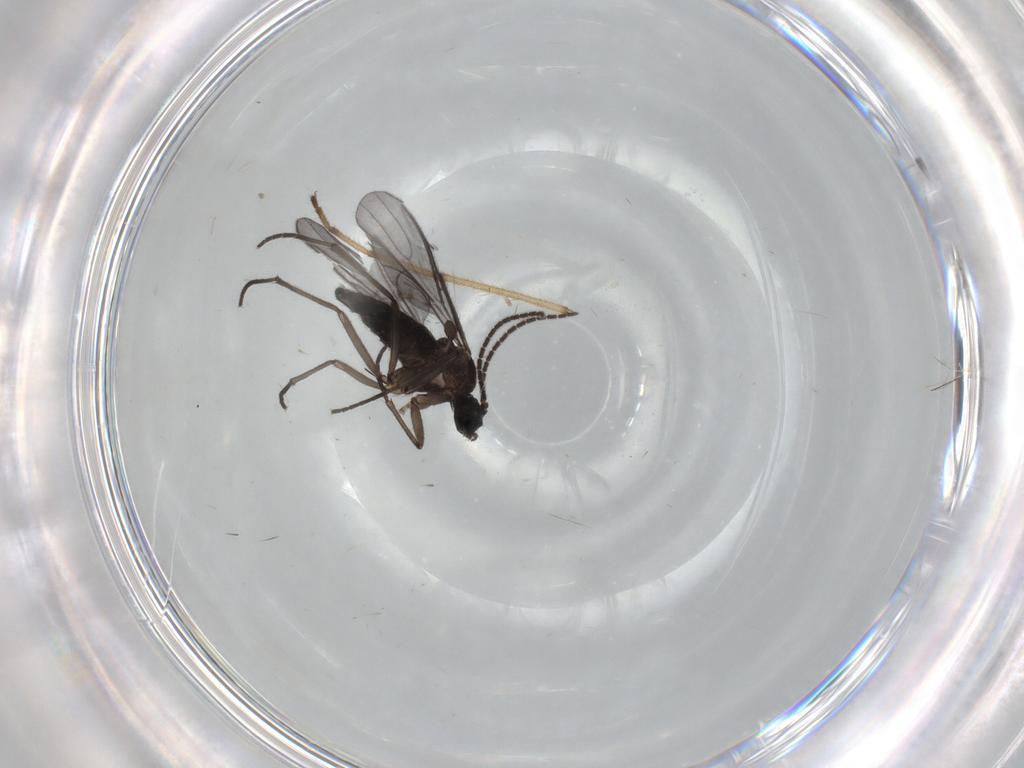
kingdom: Animalia
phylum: Arthropoda
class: Insecta
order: Diptera
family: Sciaridae
